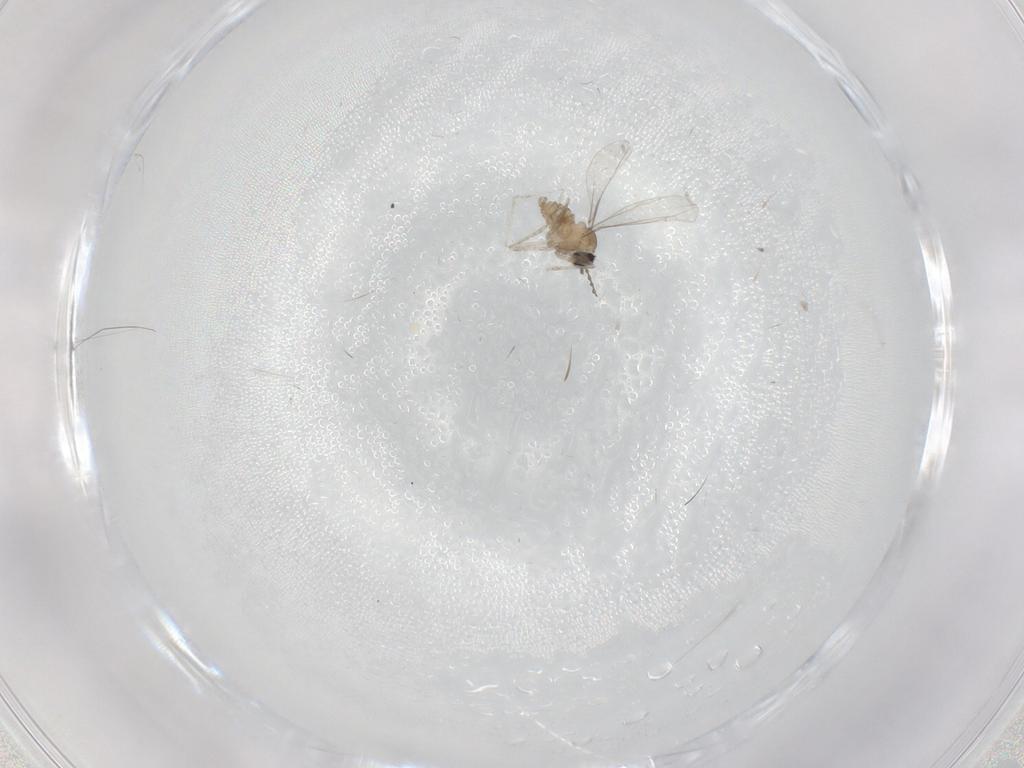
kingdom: Animalia
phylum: Arthropoda
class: Insecta
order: Diptera
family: Cecidomyiidae
